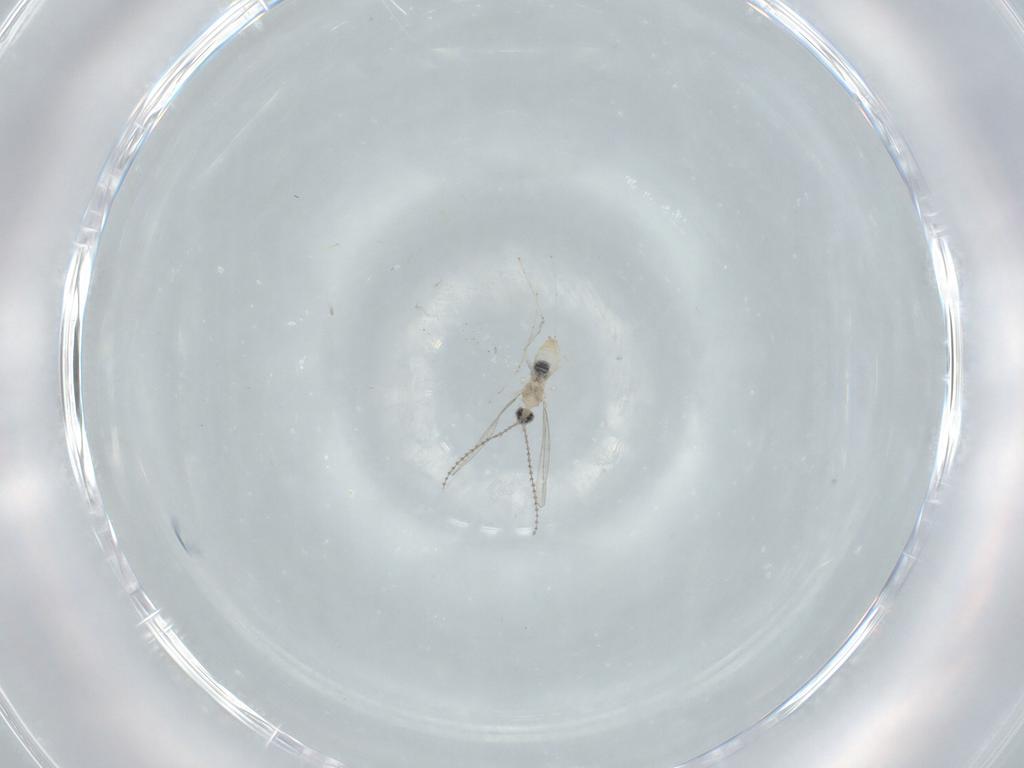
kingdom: Animalia
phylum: Arthropoda
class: Insecta
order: Diptera
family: Cecidomyiidae
